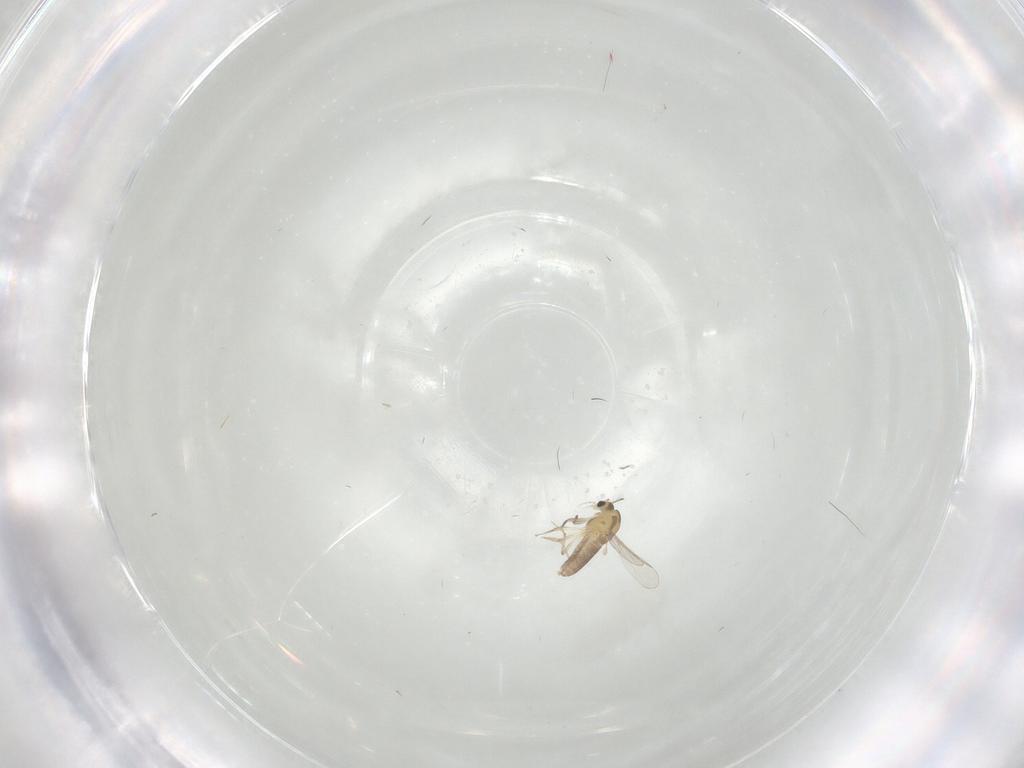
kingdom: Animalia
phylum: Arthropoda
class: Insecta
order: Diptera
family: Chironomidae
